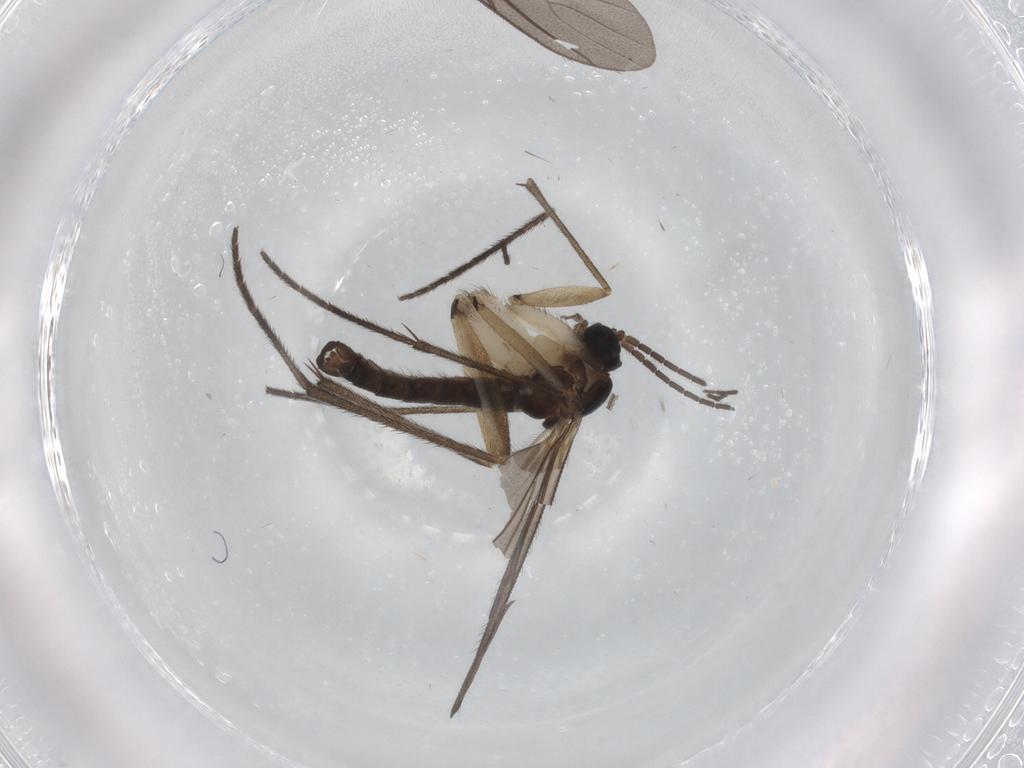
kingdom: Animalia
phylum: Arthropoda
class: Insecta
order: Diptera
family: Sciaridae
